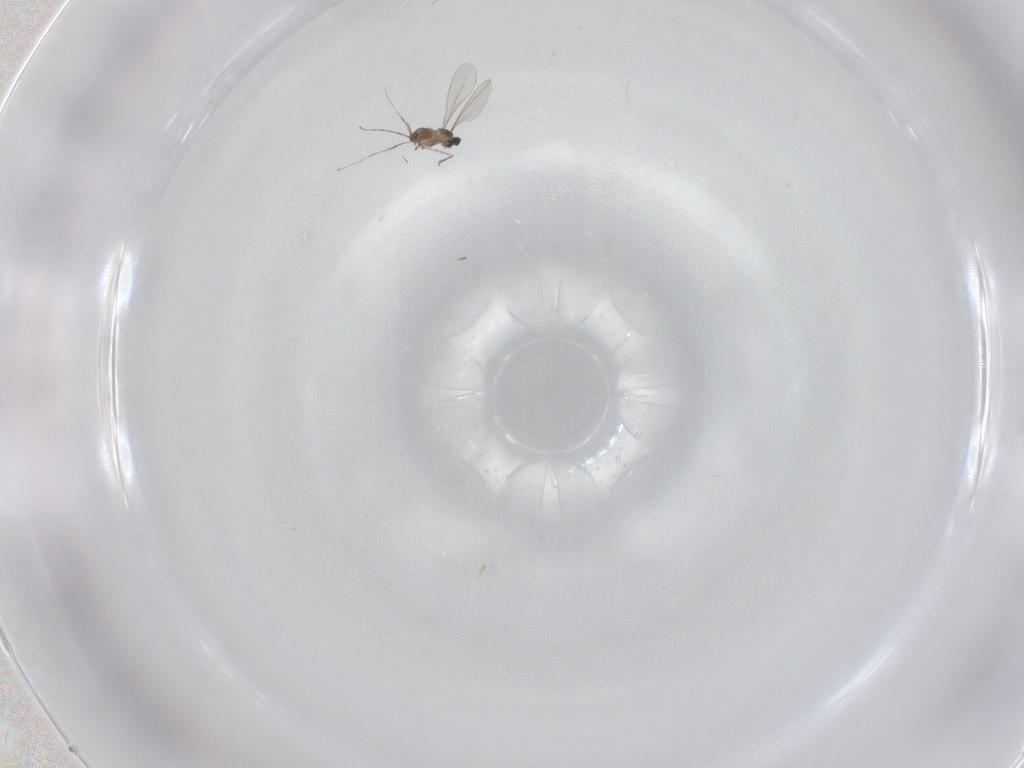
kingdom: Animalia
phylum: Arthropoda
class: Insecta
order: Diptera
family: Cecidomyiidae
